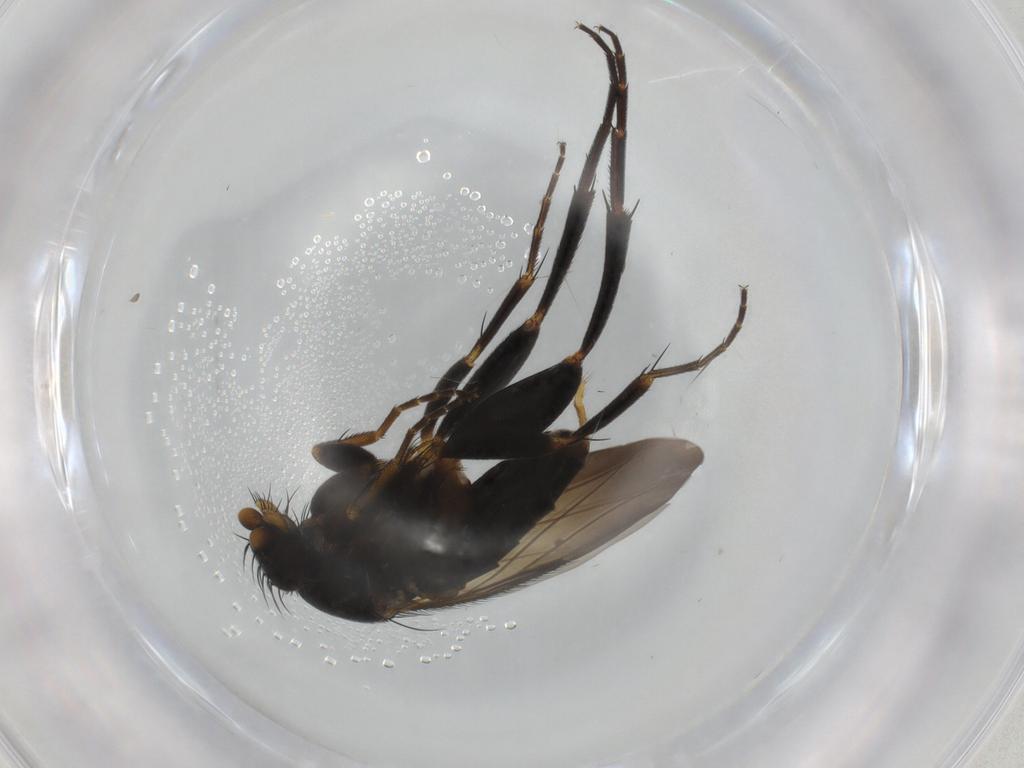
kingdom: Animalia
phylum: Arthropoda
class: Insecta
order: Diptera
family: Phoridae
